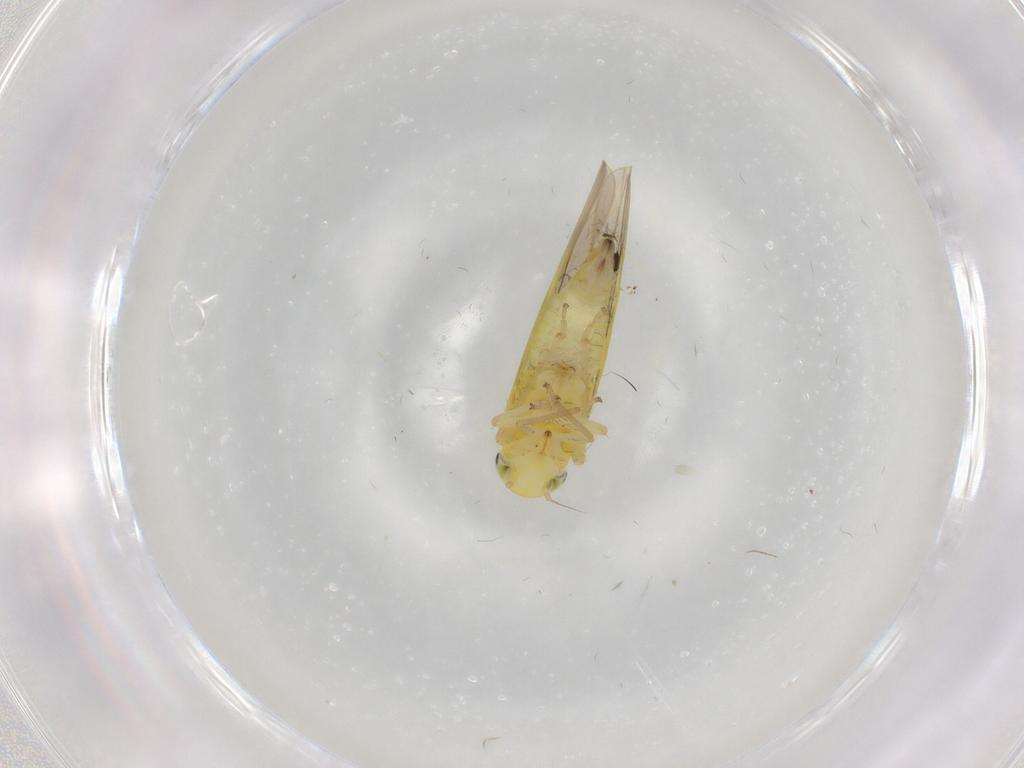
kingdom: Animalia
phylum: Arthropoda
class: Insecta
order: Hemiptera
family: Cicadellidae
